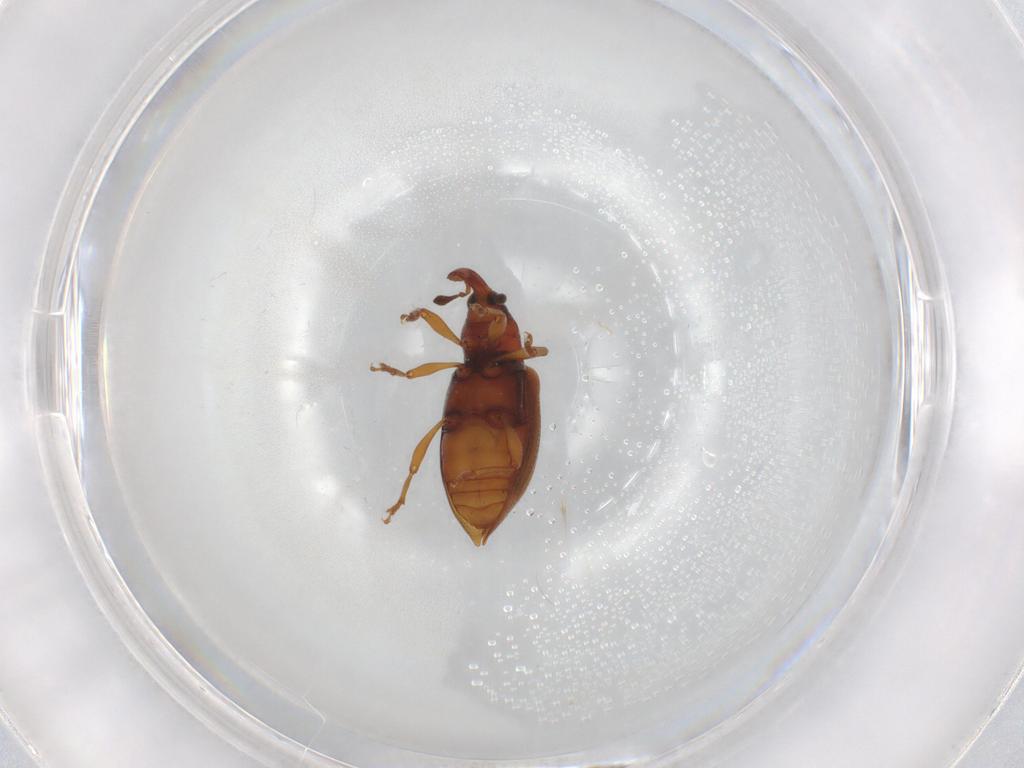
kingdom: Animalia
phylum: Arthropoda
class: Insecta
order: Coleoptera
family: Curculionidae
